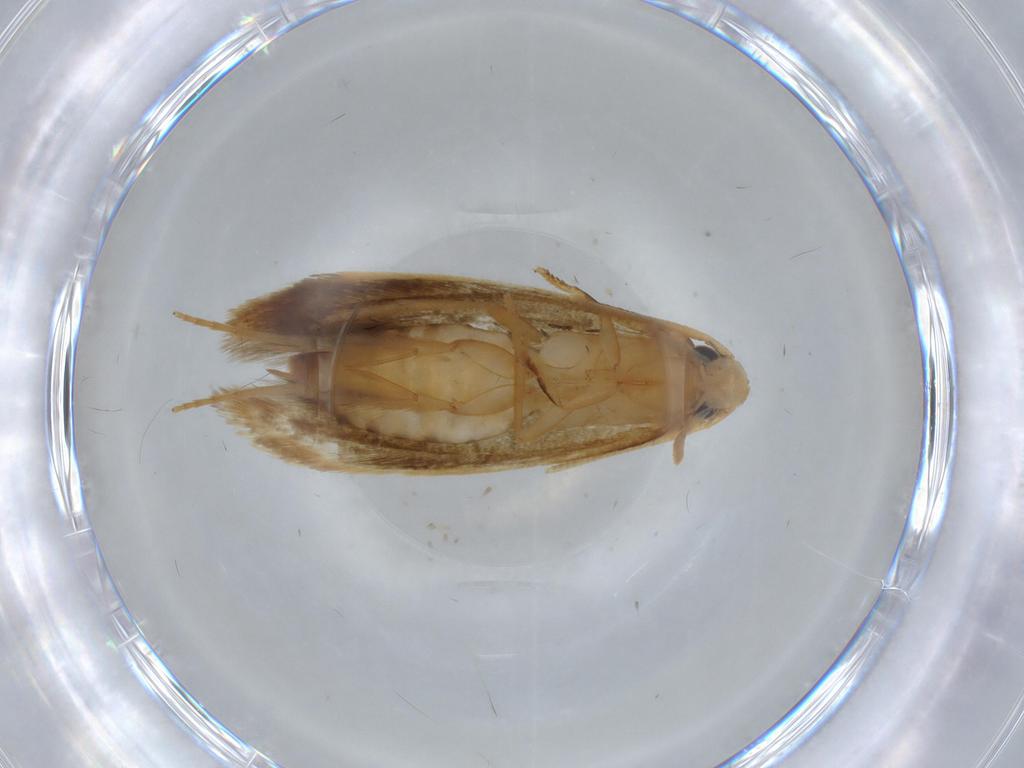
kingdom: Animalia
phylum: Arthropoda
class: Insecta
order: Lepidoptera
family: Tineidae
